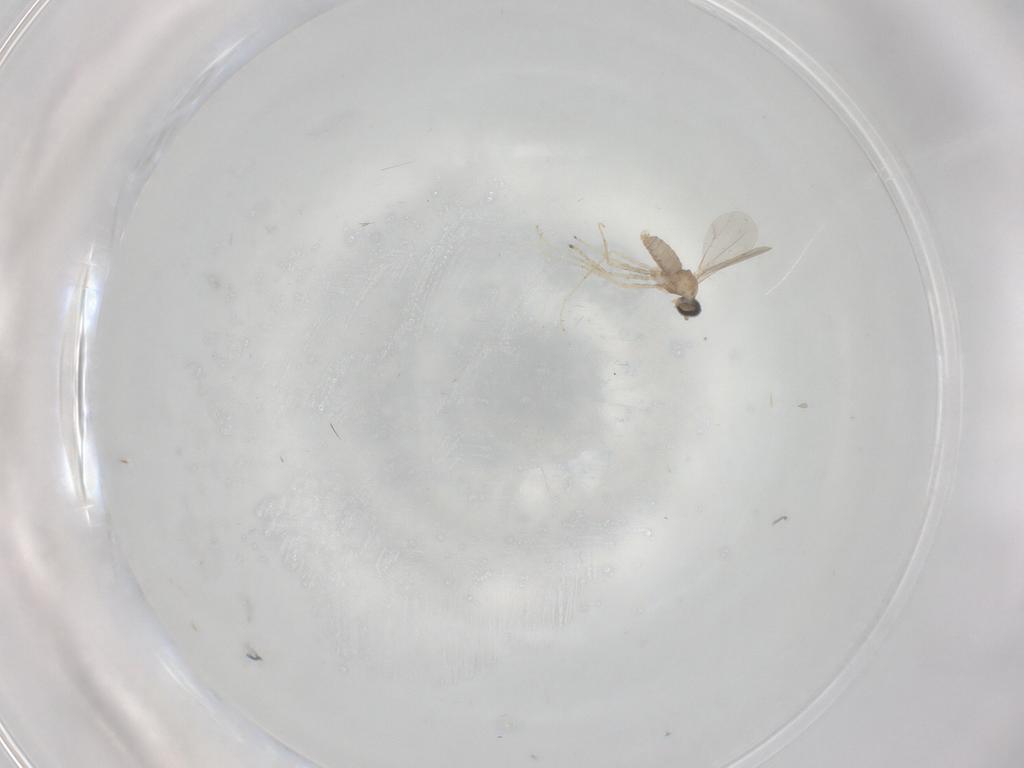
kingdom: Animalia
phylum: Arthropoda
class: Insecta
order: Diptera
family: Cecidomyiidae
